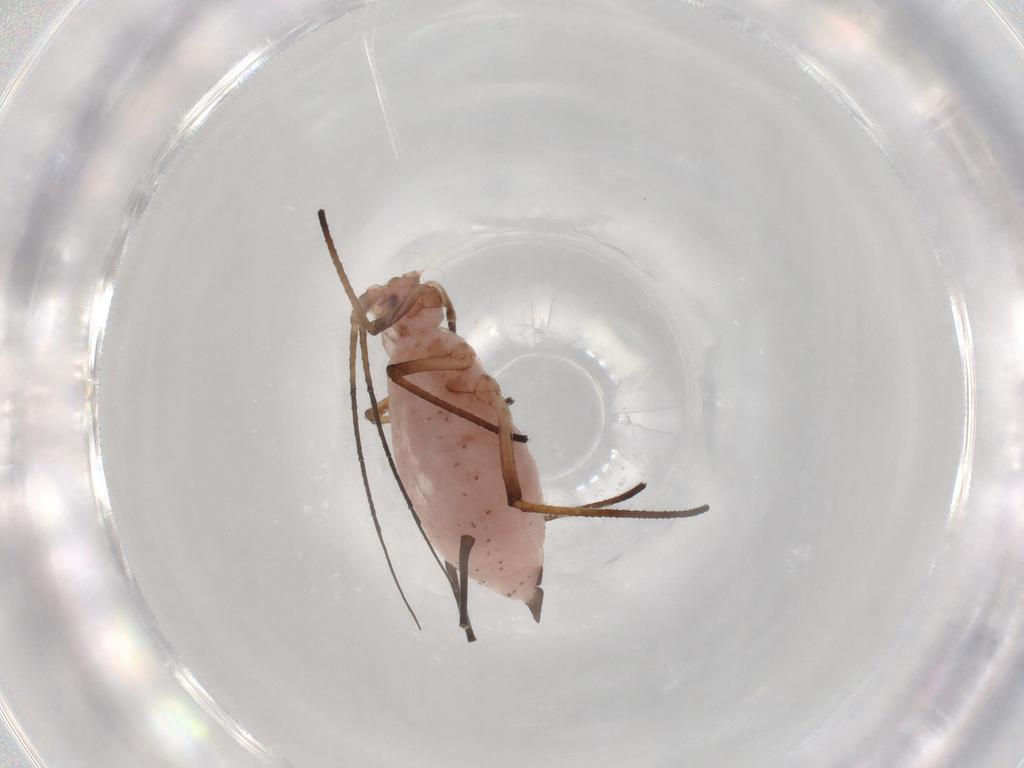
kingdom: Animalia
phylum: Arthropoda
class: Insecta
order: Hemiptera
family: Aphididae
